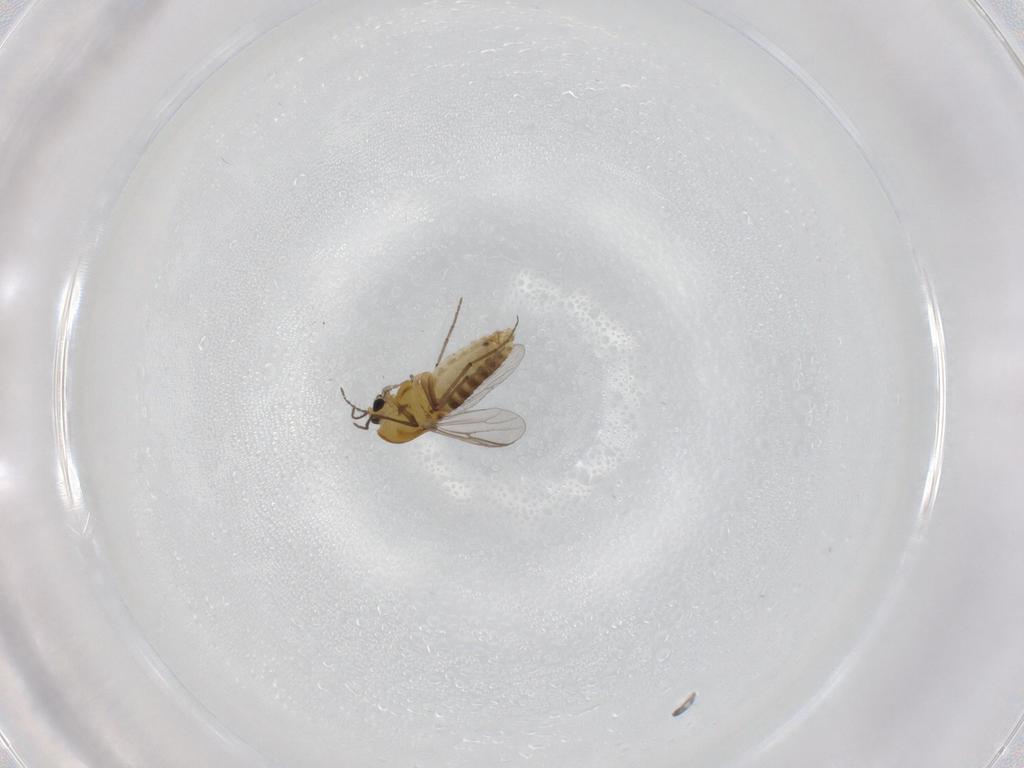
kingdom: Animalia
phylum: Arthropoda
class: Insecta
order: Diptera
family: Chironomidae
